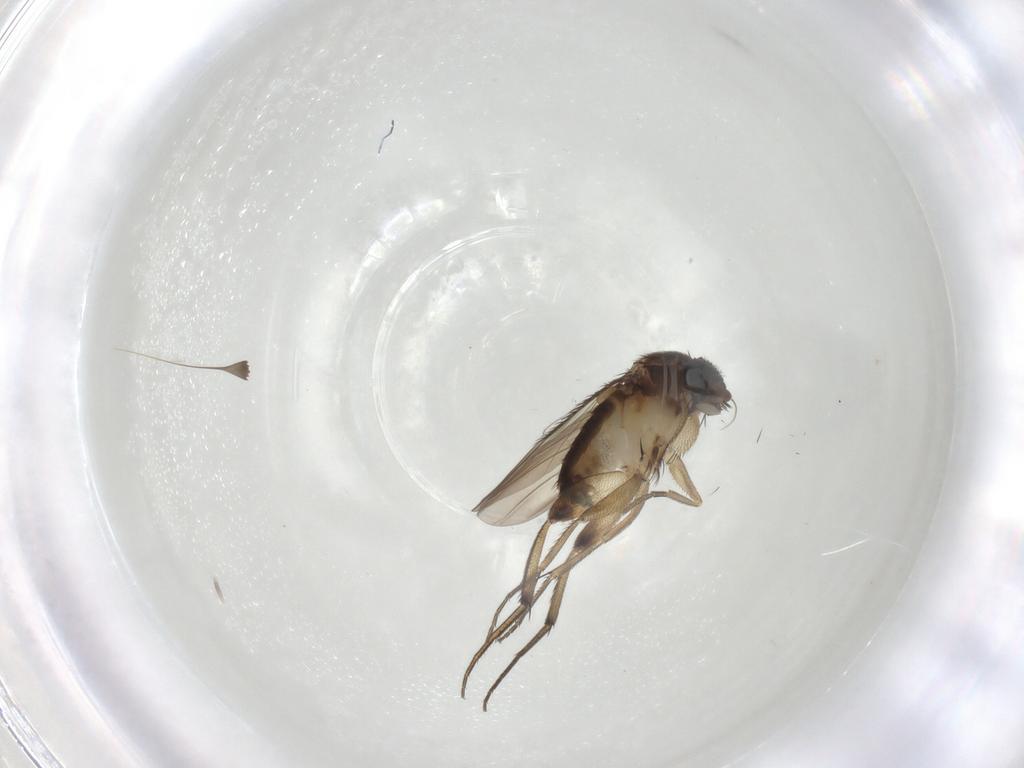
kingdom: Animalia
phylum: Arthropoda
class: Insecta
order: Diptera
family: Phoridae
